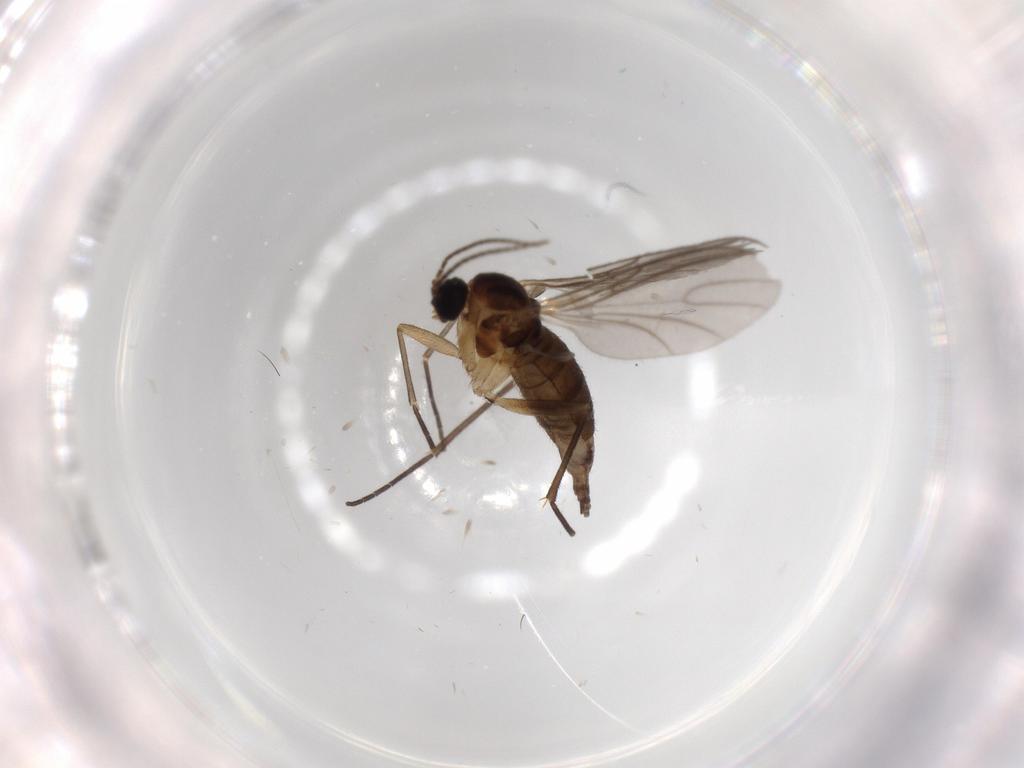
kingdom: Animalia
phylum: Arthropoda
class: Insecta
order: Diptera
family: Sciaridae
